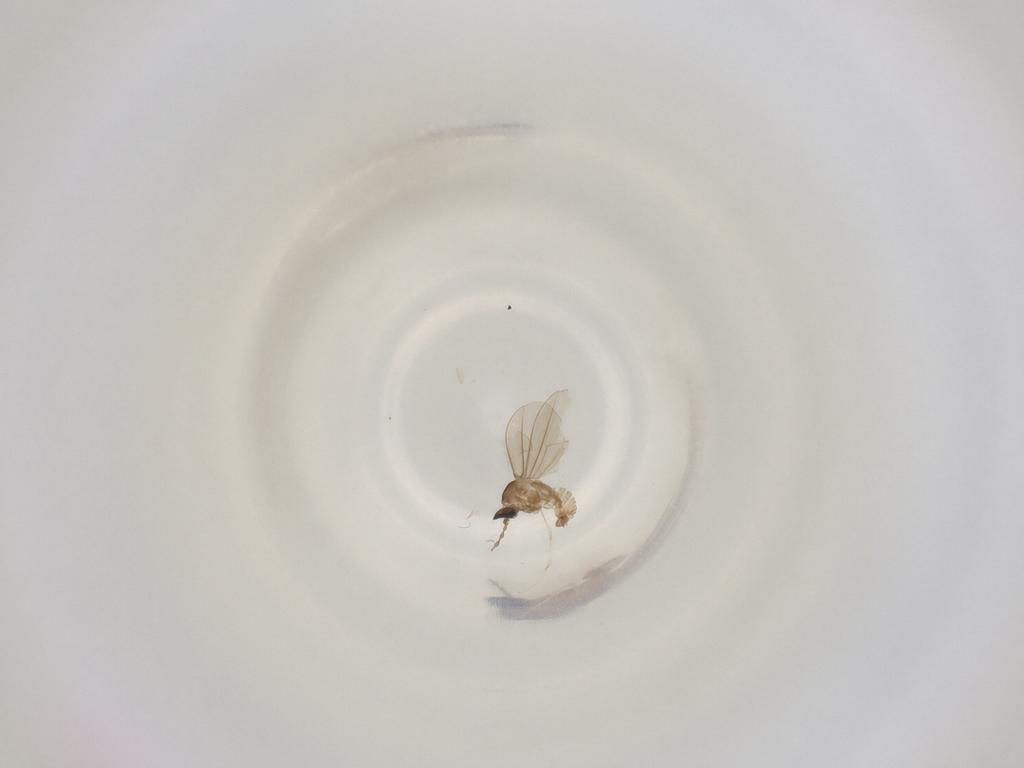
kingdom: Animalia
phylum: Arthropoda
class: Insecta
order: Diptera
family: Cecidomyiidae
